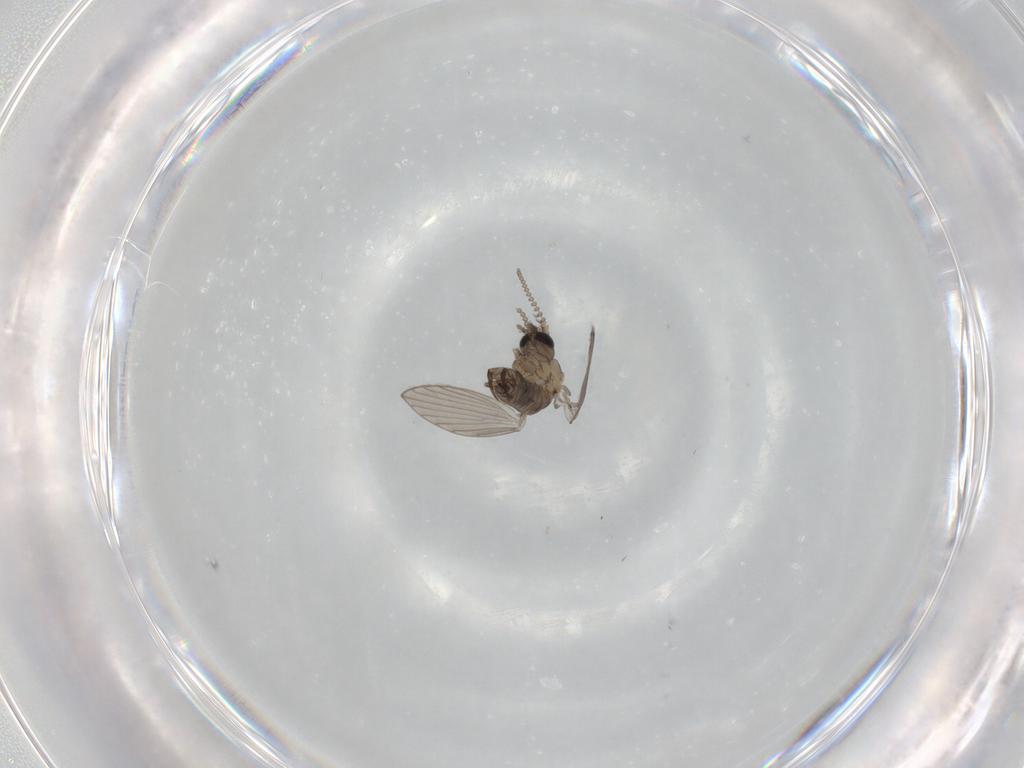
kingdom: Animalia
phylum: Arthropoda
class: Insecta
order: Diptera
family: Psychodidae
